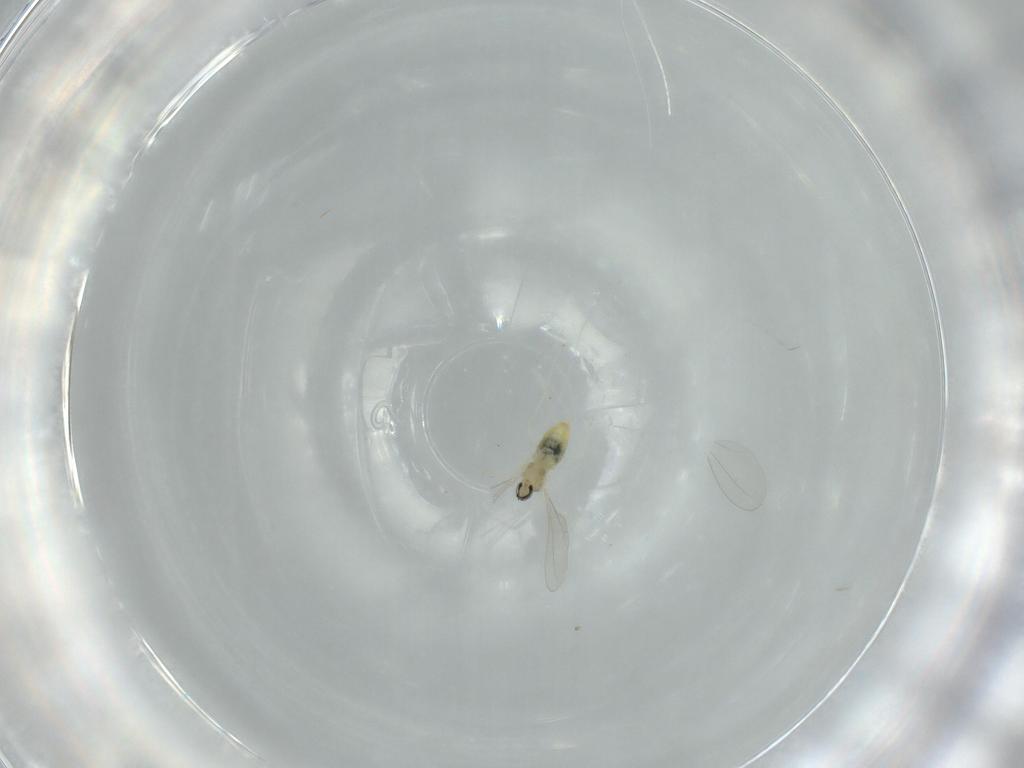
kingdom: Animalia
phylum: Arthropoda
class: Insecta
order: Diptera
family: Cecidomyiidae
